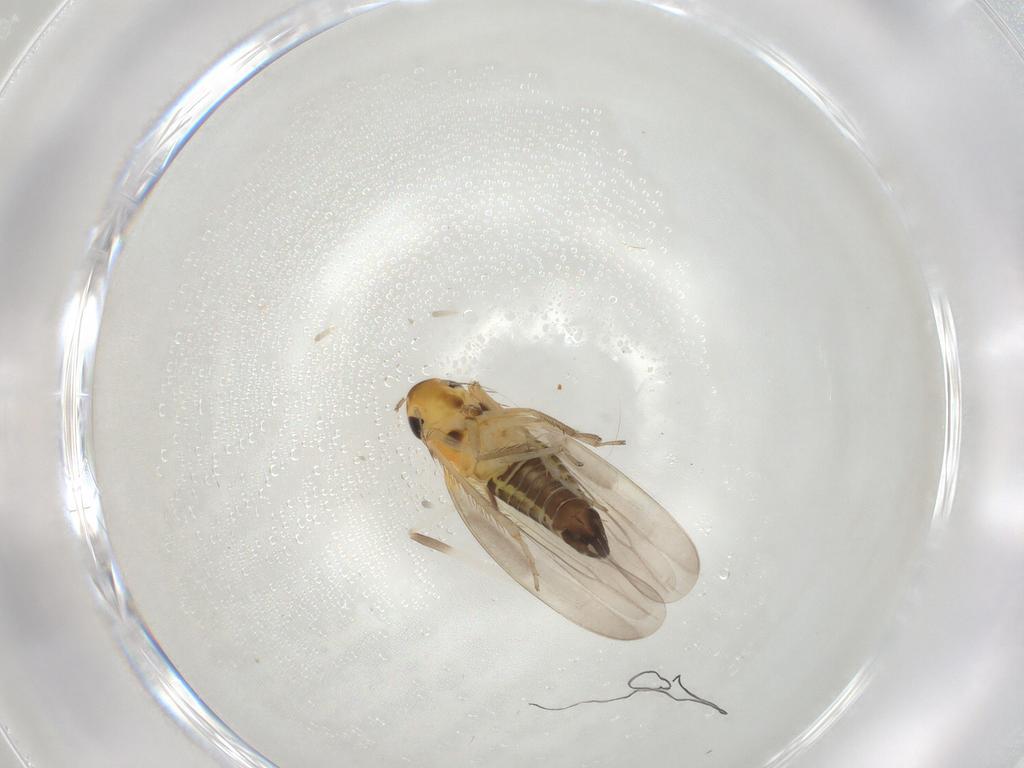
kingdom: Animalia
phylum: Arthropoda
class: Insecta
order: Hemiptera
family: Cicadellidae
